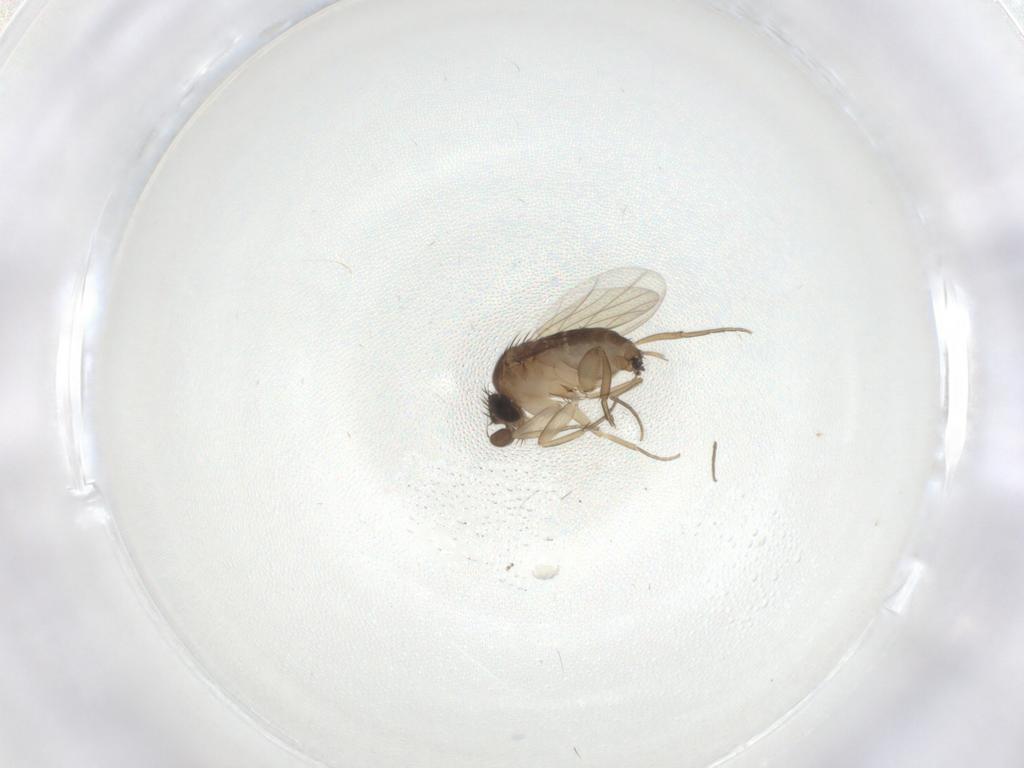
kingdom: Animalia
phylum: Arthropoda
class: Insecta
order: Diptera
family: Phoridae
